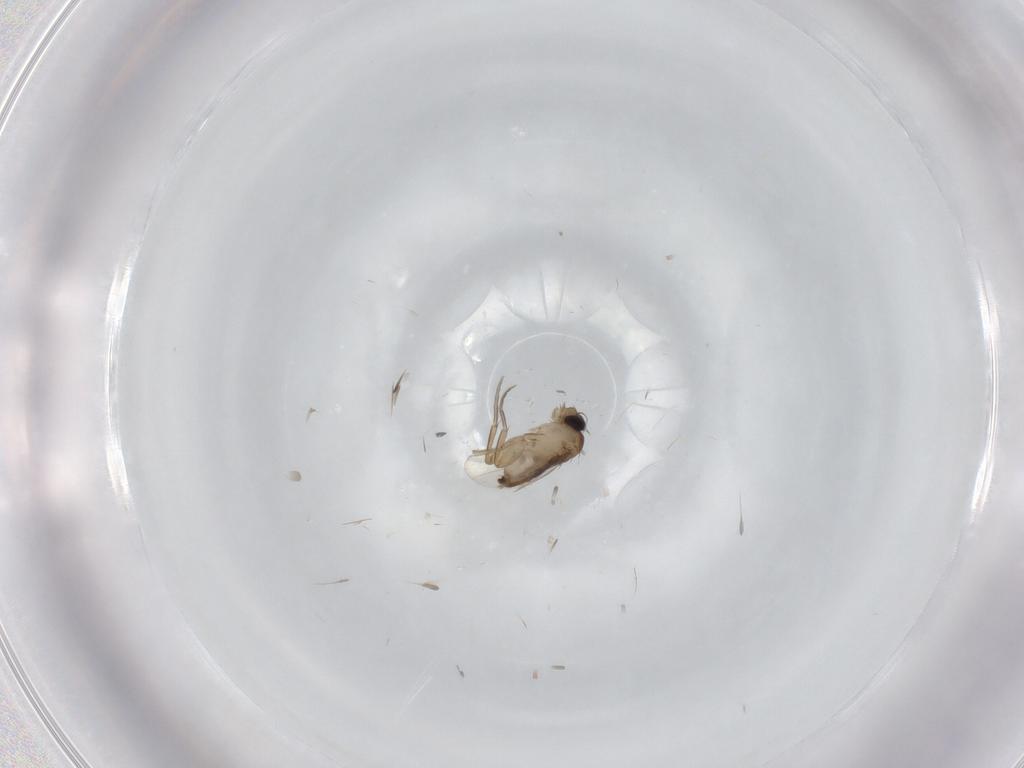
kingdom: Animalia
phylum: Arthropoda
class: Insecta
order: Diptera
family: Phoridae
